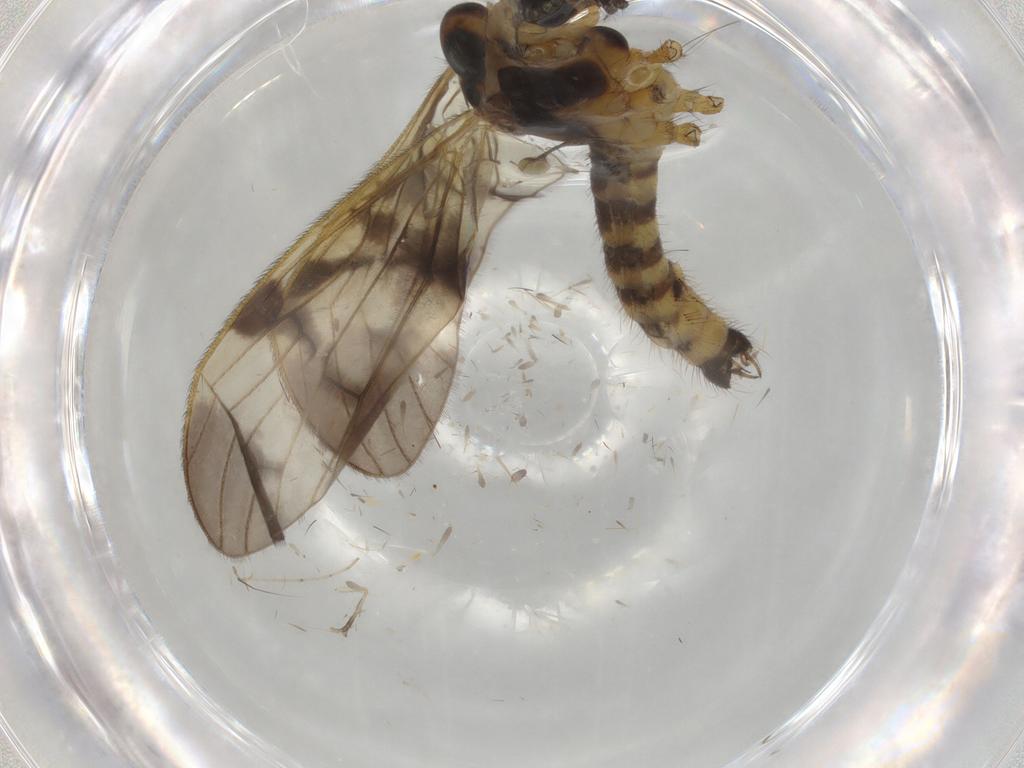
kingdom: Animalia
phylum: Arthropoda
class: Insecta
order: Diptera
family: Limoniidae
